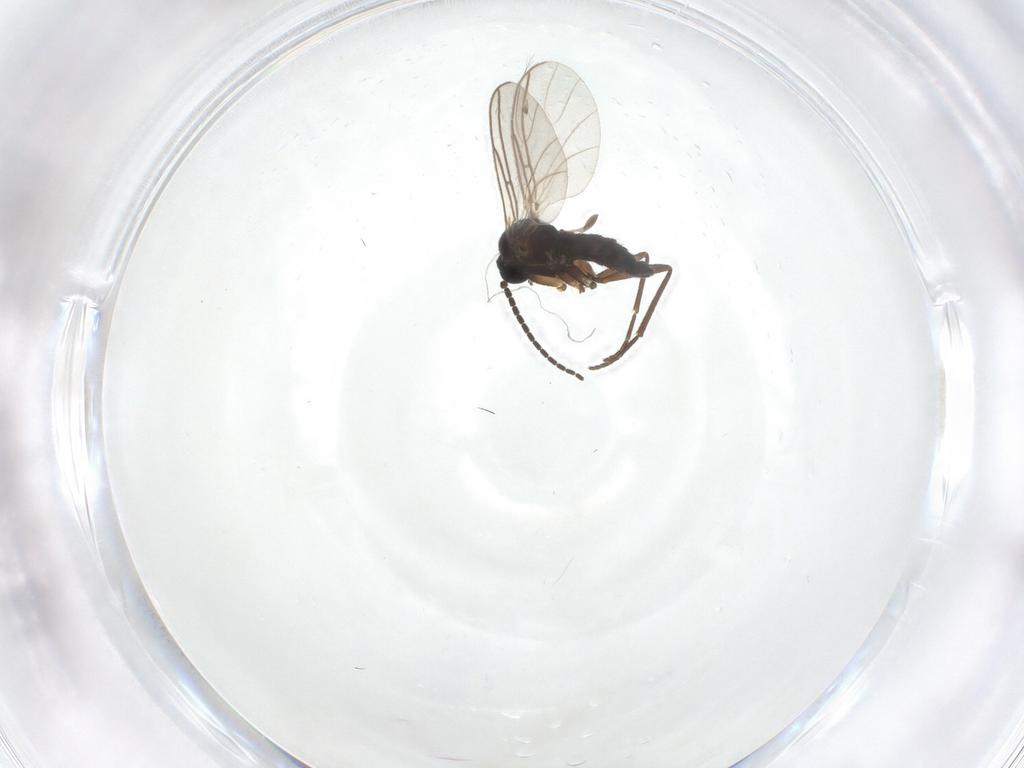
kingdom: Animalia
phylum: Arthropoda
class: Insecta
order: Diptera
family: Sciaridae
